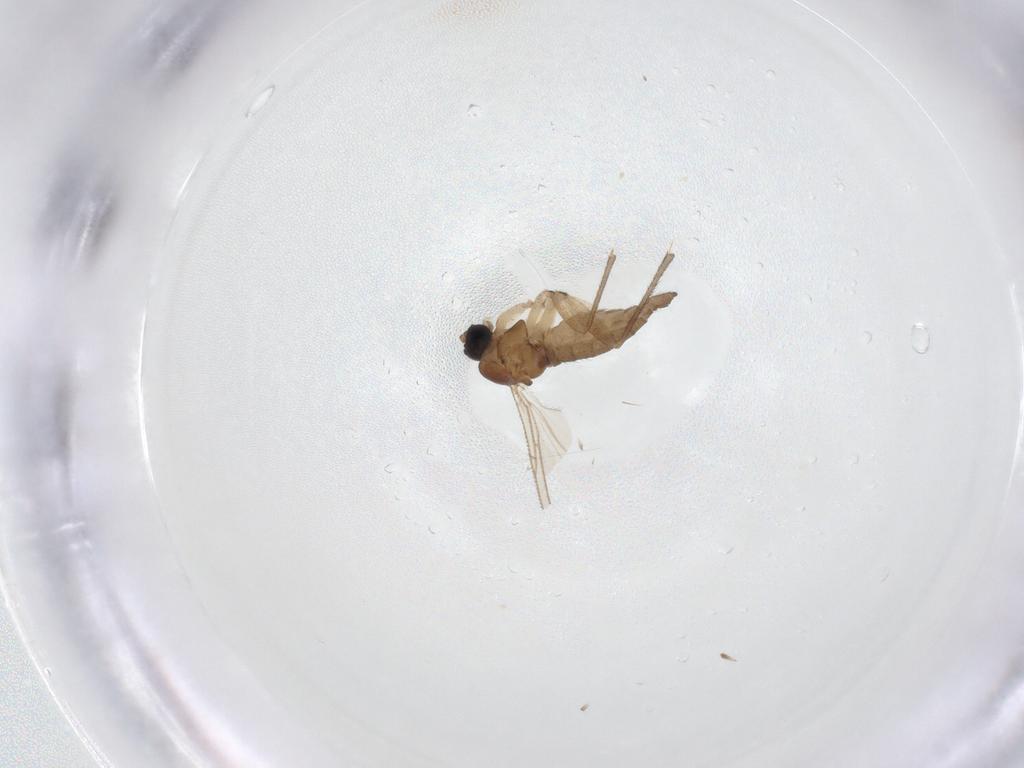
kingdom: Animalia
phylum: Arthropoda
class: Insecta
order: Diptera
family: Sciaridae
